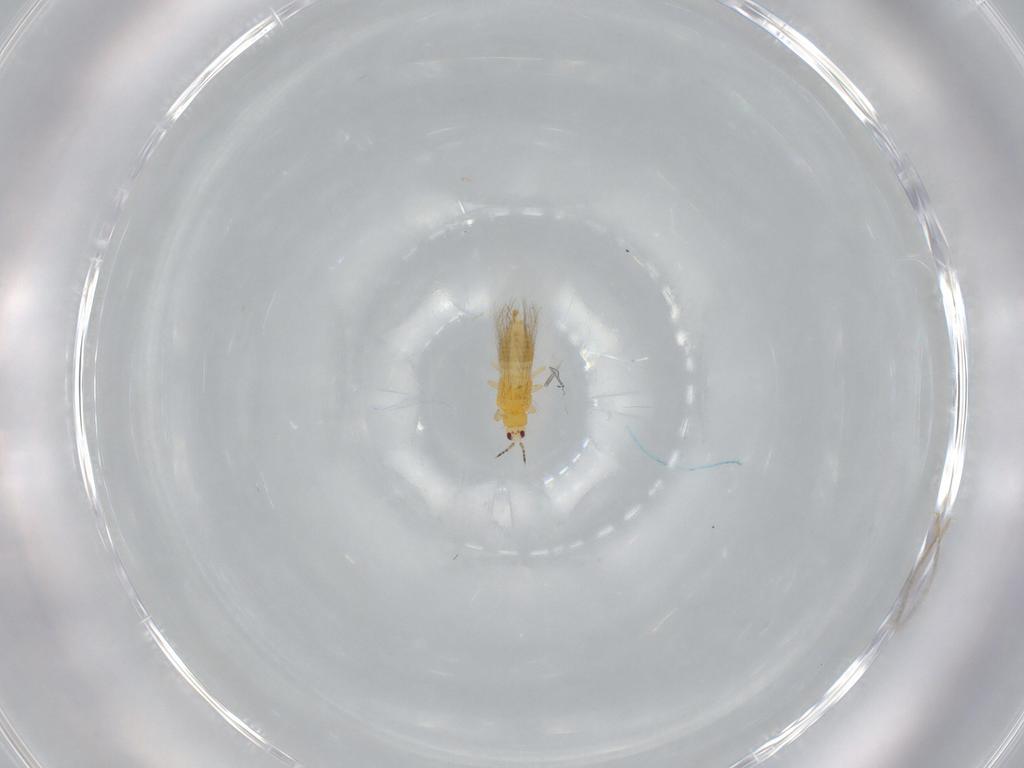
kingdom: Animalia
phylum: Arthropoda
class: Insecta
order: Thysanoptera
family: Thripidae
